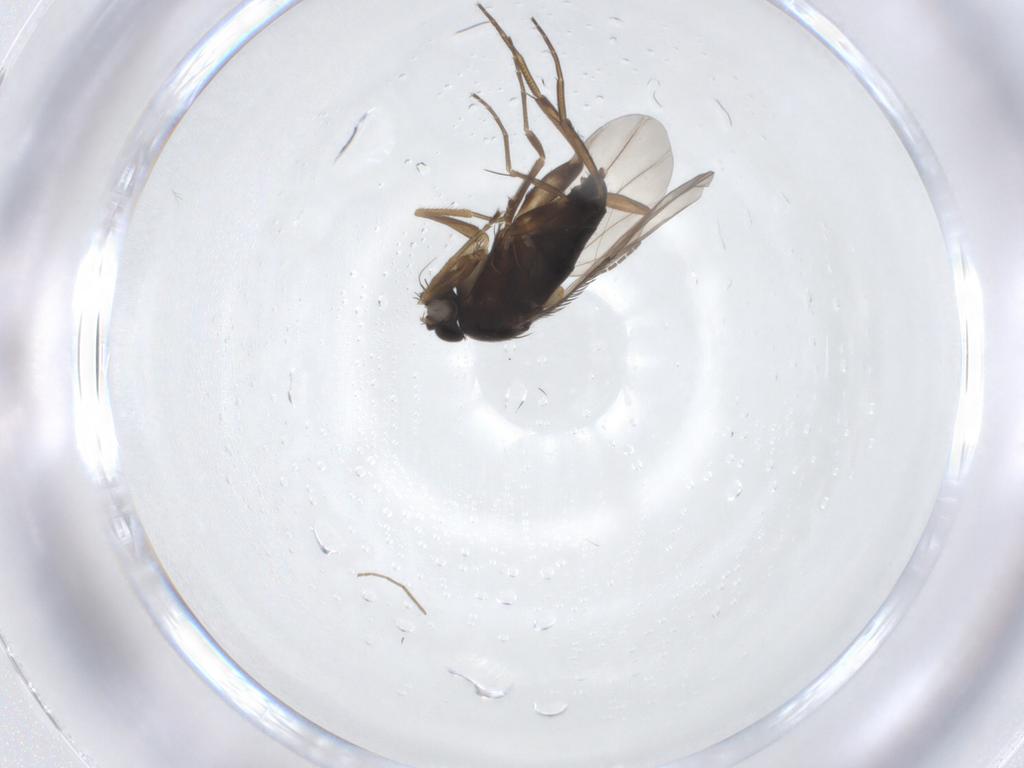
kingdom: Animalia
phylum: Arthropoda
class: Insecta
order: Diptera
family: Phoridae
